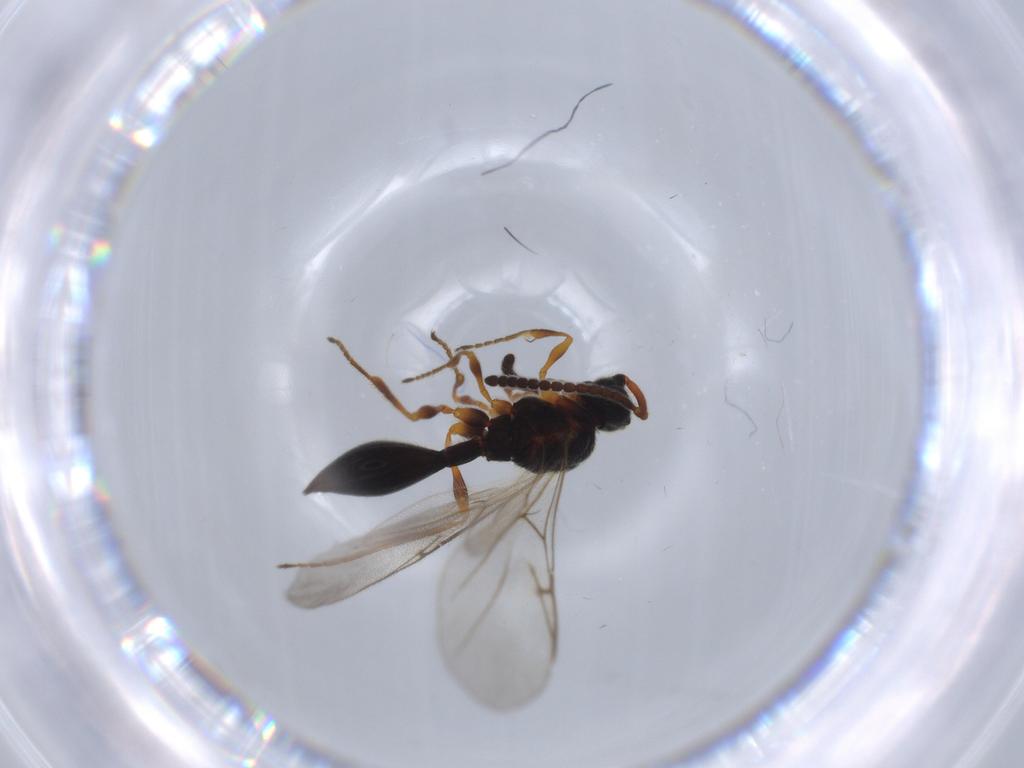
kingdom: Animalia
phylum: Arthropoda
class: Insecta
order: Hymenoptera
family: Diapriidae
